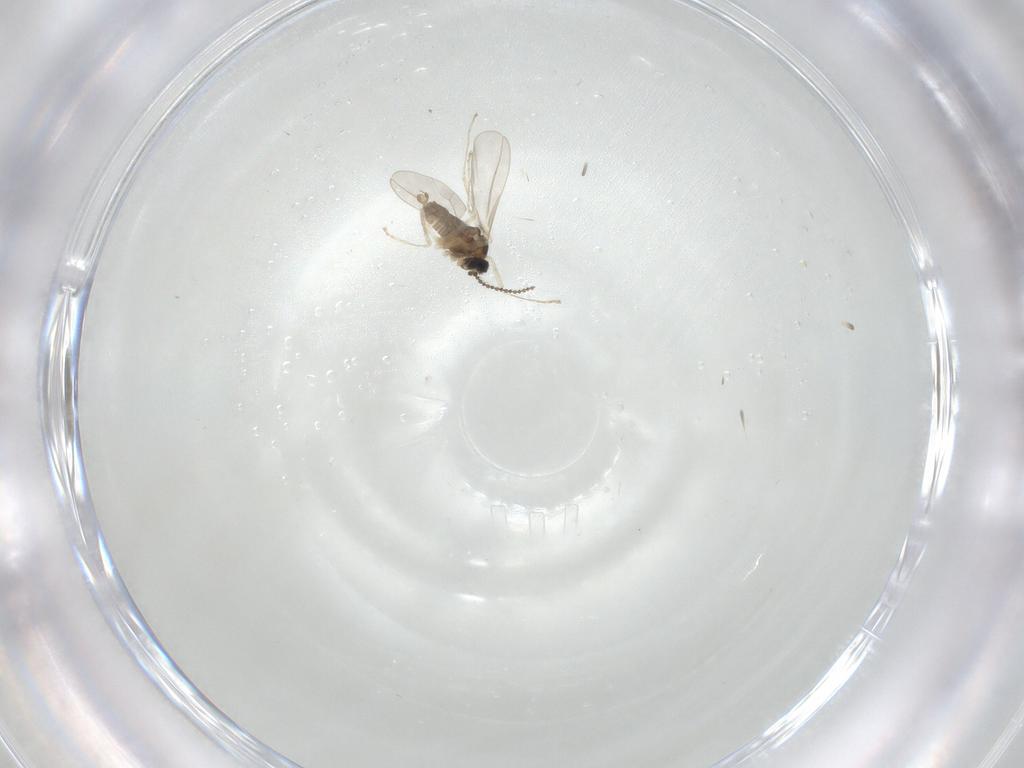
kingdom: Animalia
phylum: Arthropoda
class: Insecta
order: Diptera
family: Cecidomyiidae
